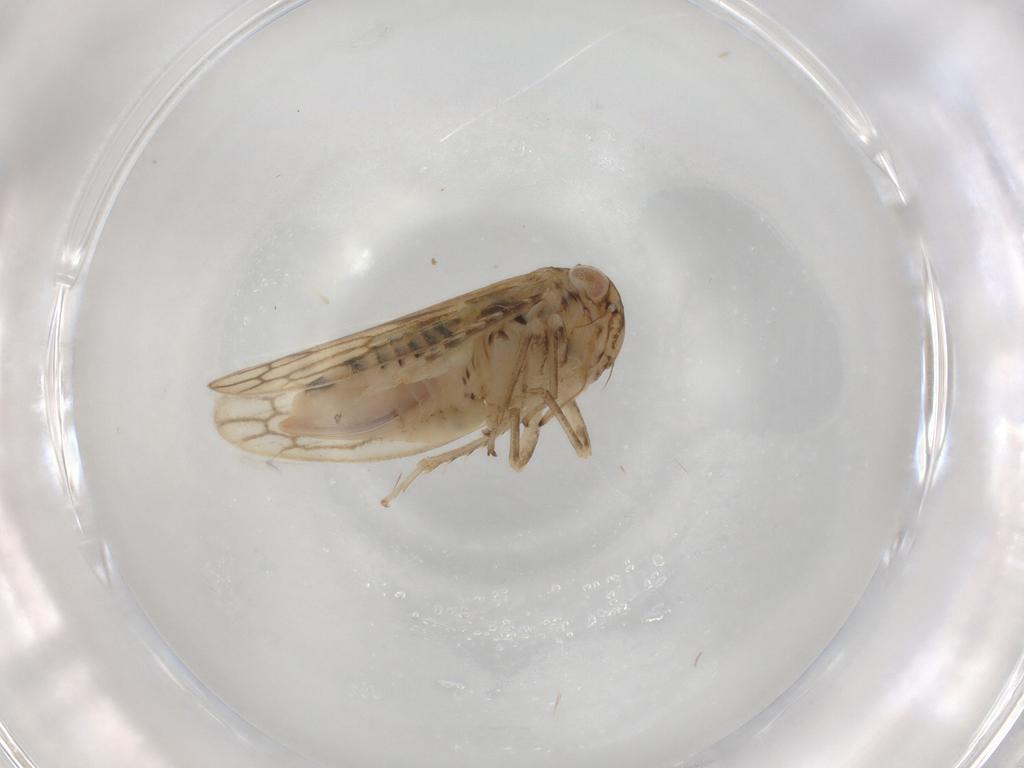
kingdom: Animalia
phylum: Arthropoda
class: Insecta
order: Hemiptera
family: Cicadellidae
